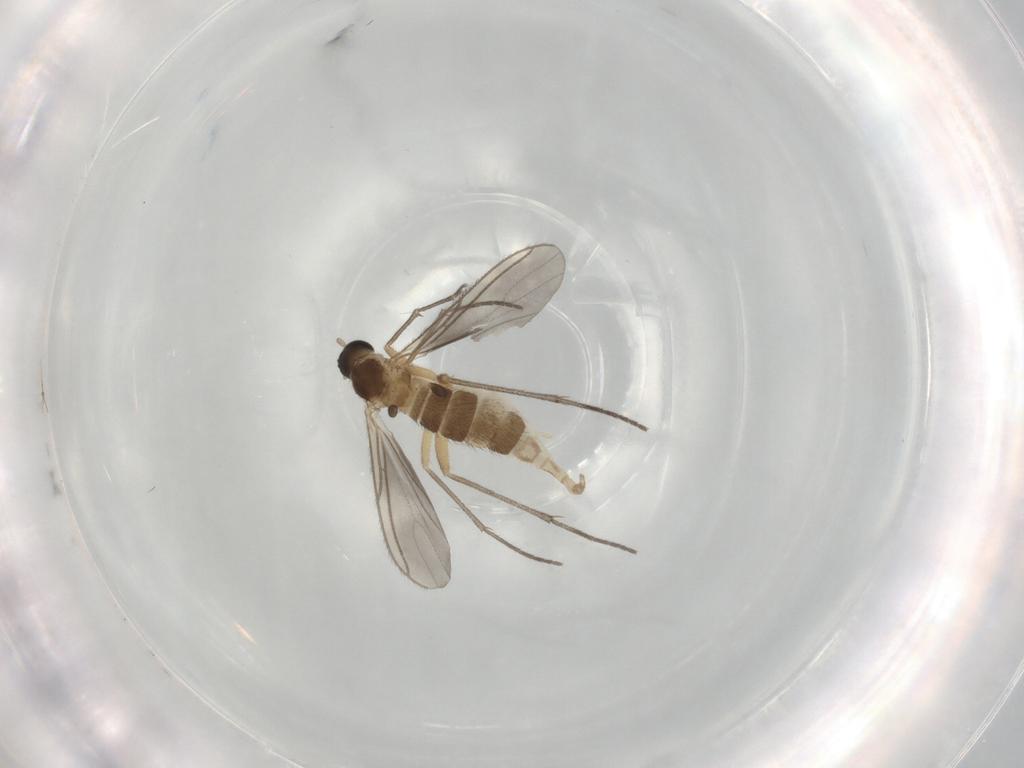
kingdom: Animalia
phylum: Arthropoda
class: Insecta
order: Diptera
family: Sciaridae
